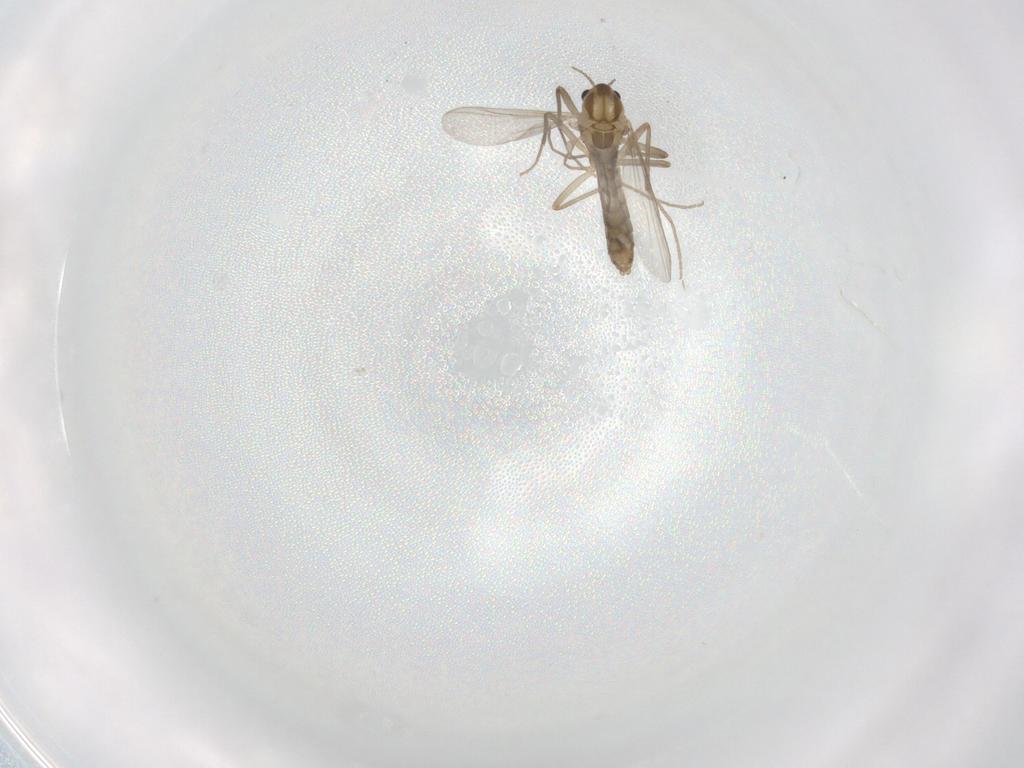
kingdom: Animalia
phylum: Arthropoda
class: Insecta
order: Diptera
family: Chironomidae
